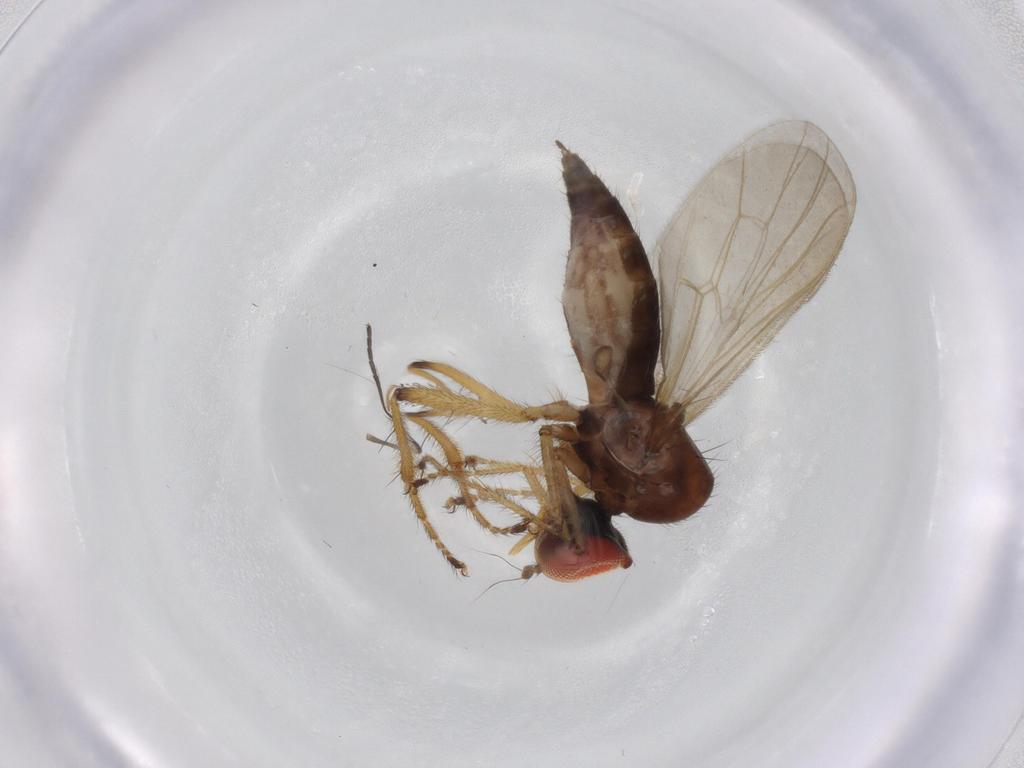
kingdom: Animalia
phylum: Arthropoda
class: Insecta
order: Diptera
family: Hybotidae
